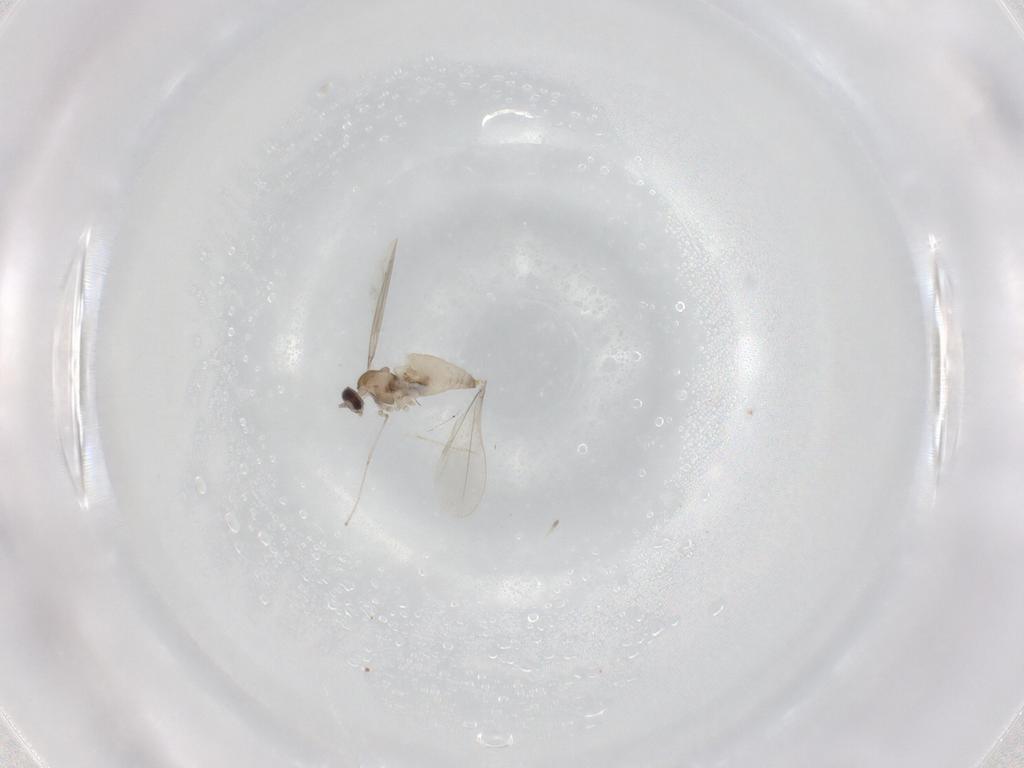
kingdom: Animalia
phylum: Arthropoda
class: Insecta
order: Diptera
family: Cecidomyiidae
